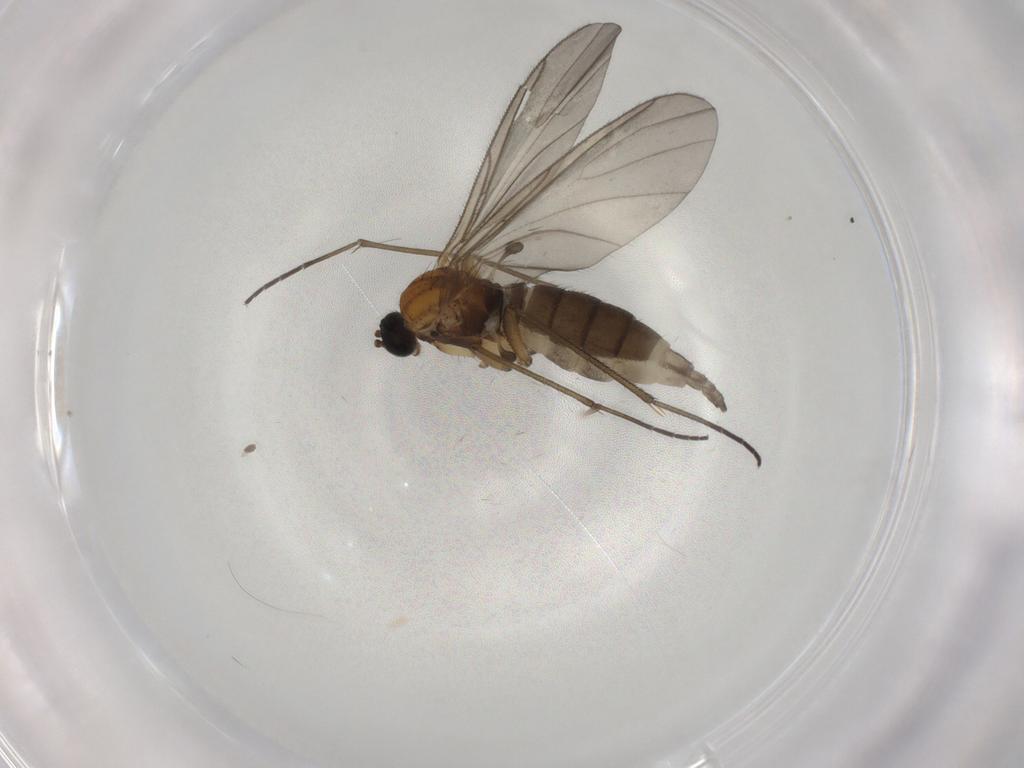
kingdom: Animalia
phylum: Arthropoda
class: Insecta
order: Diptera
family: Sciaridae
